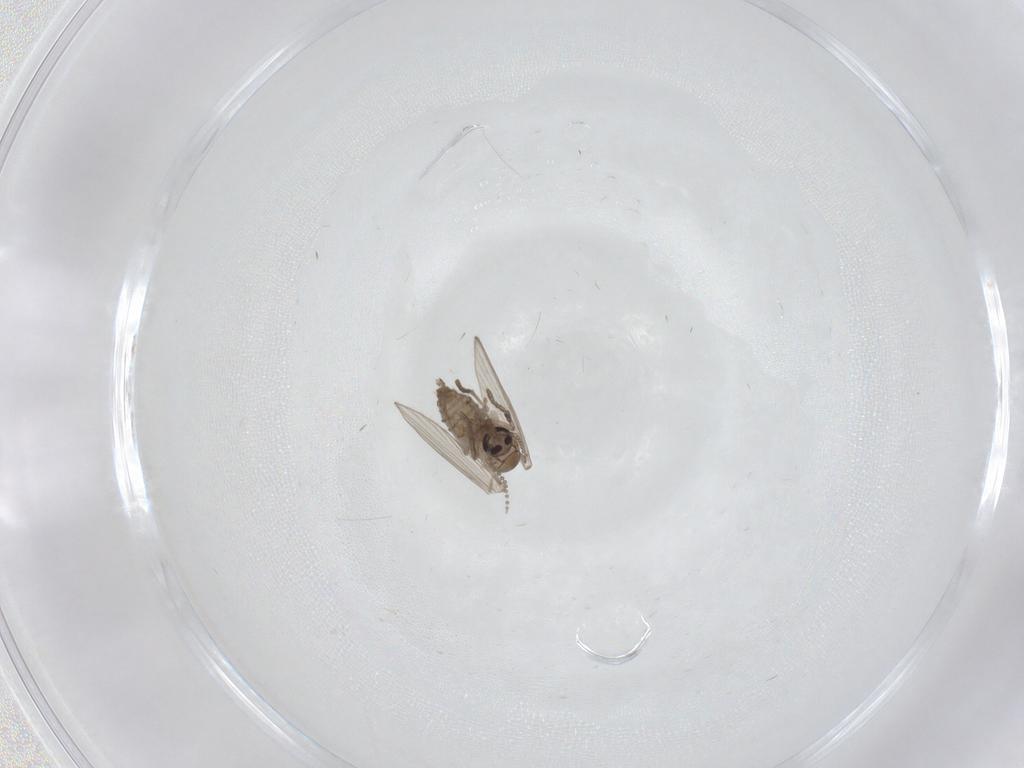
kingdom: Animalia
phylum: Arthropoda
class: Insecta
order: Diptera
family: Psychodidae
